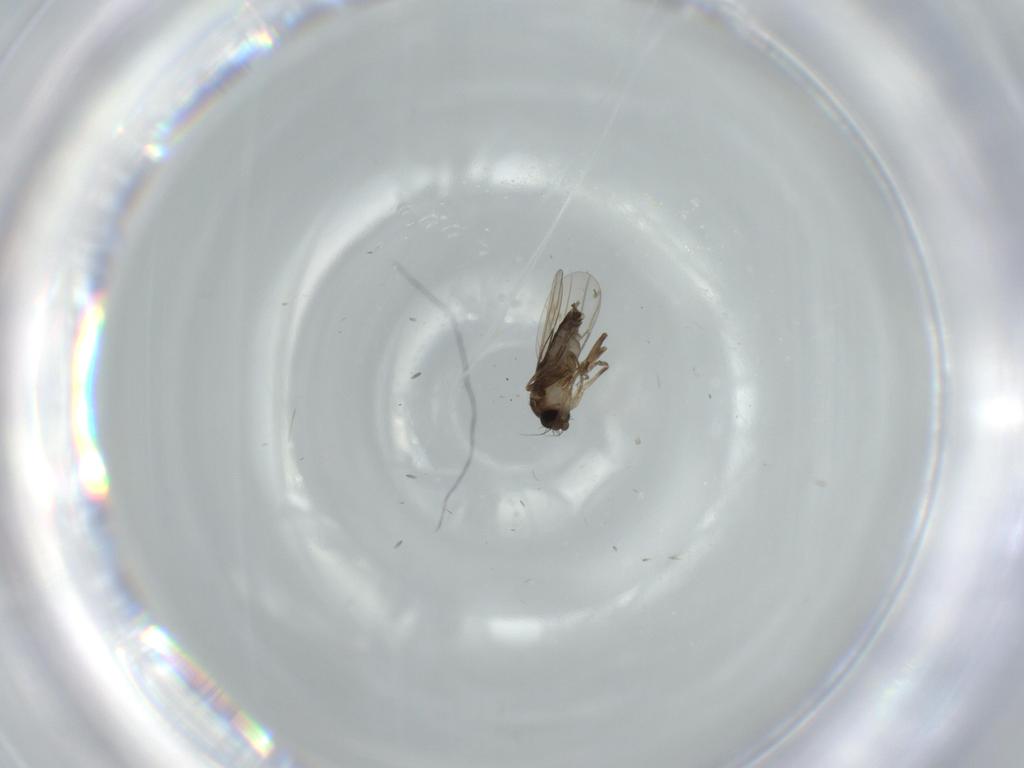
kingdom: Animalia
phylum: Arthropoda
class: Insecta
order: Diptera
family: Phoridae
